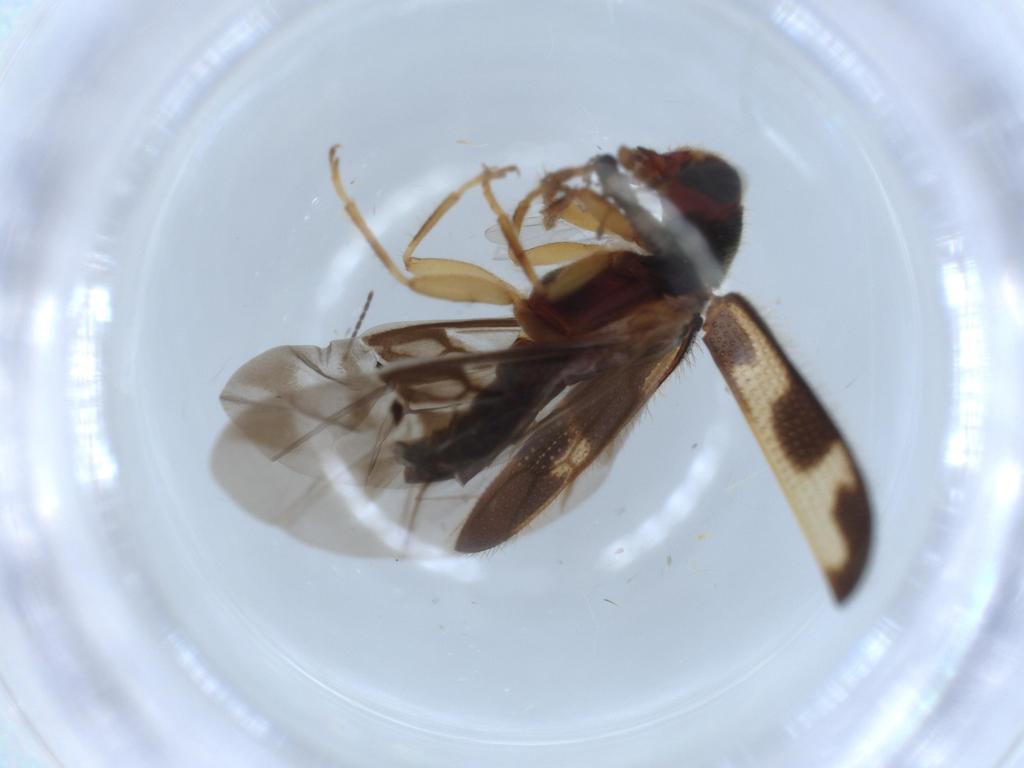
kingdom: Animalia
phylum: Arthropoda
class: Insecta
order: Coleoptera
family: Cleridae
